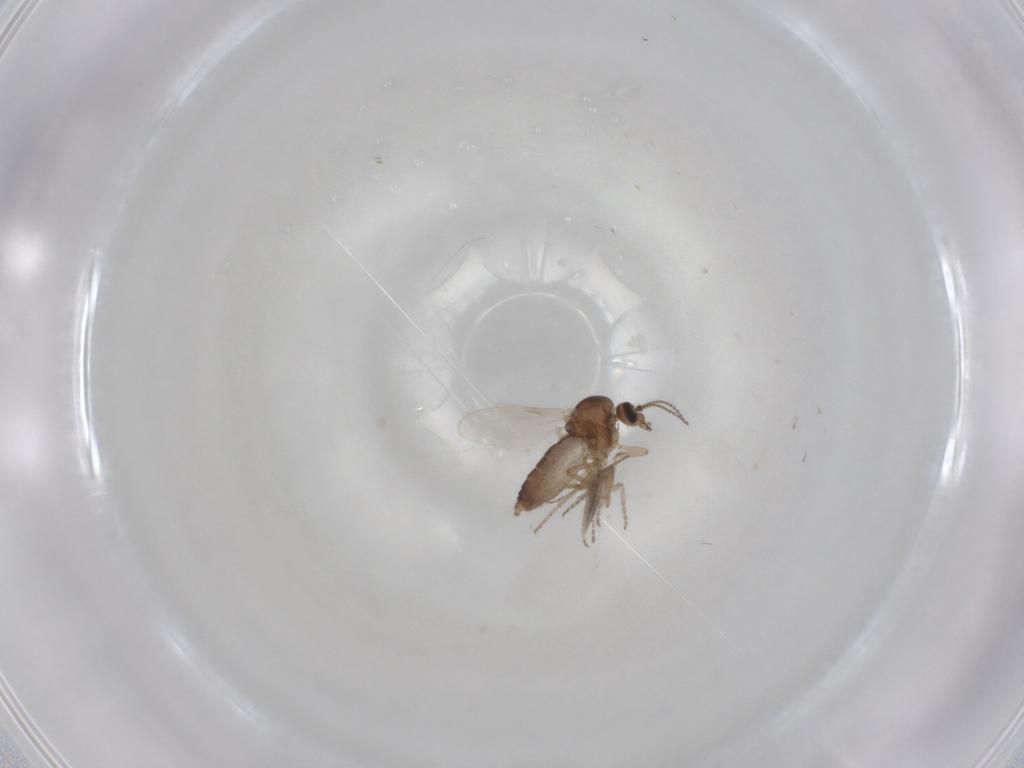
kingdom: Animalia
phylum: Arthropoda
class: Insecta
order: Diptera
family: Ceratopogonidae
